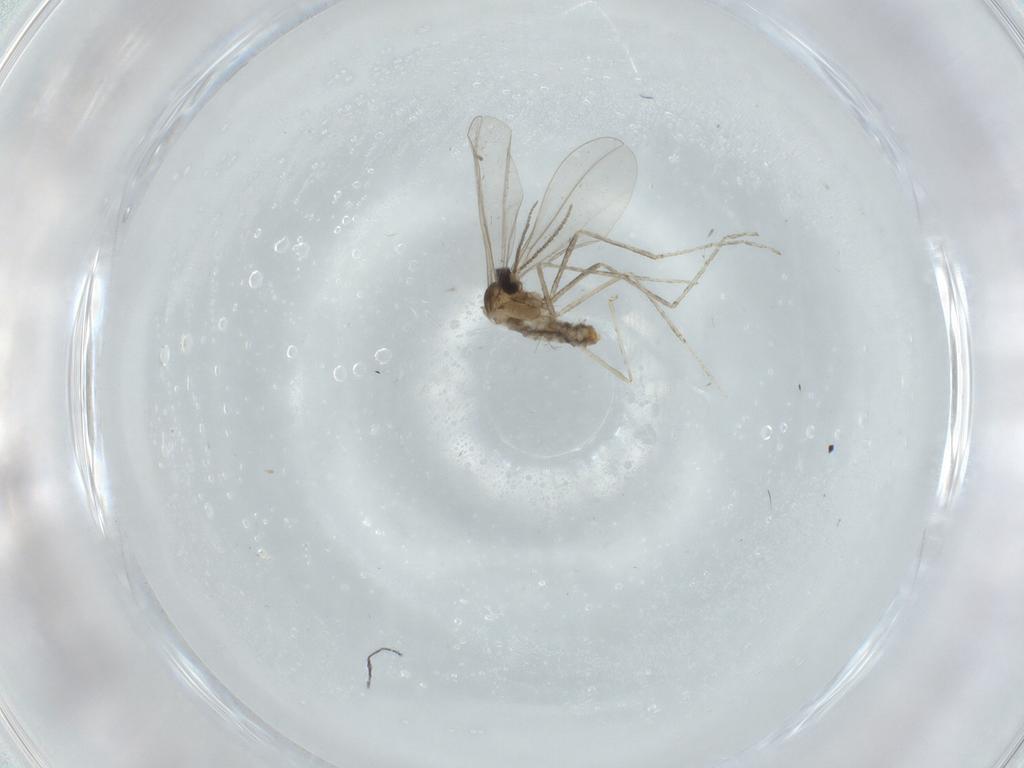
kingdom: Animalia
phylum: Arthropoda
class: Insecta
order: Diptera
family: Cecidomyiidae
